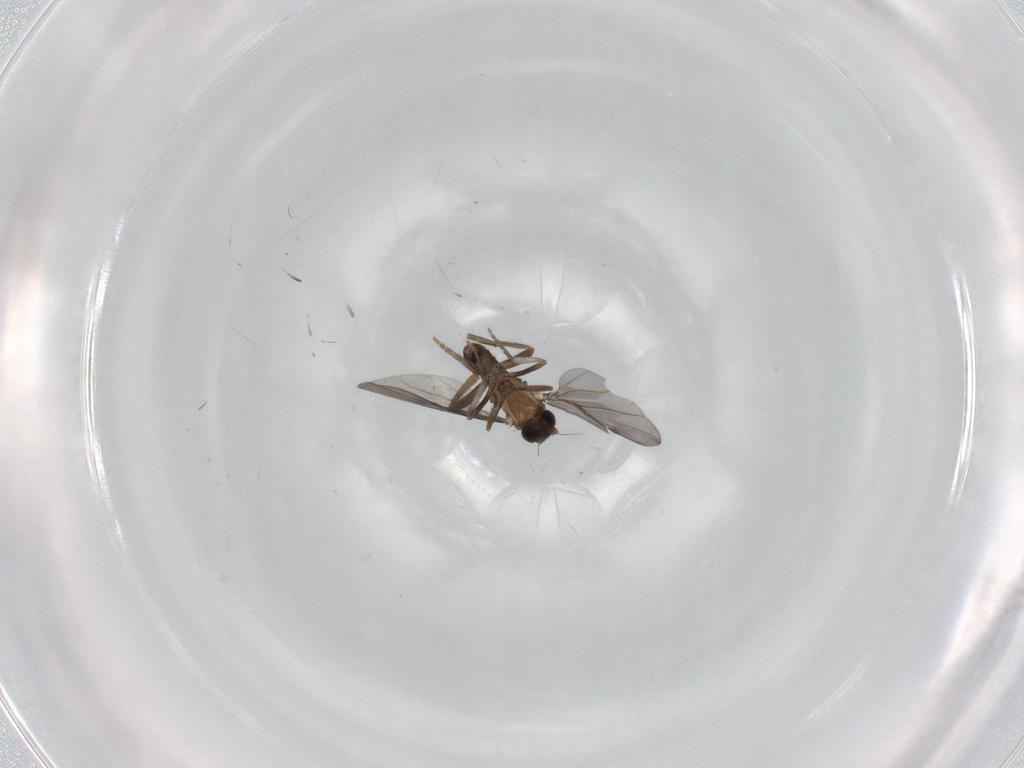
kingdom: Animalia
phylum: Arthropoda
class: Insecta
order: Diptera
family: Phoridae
